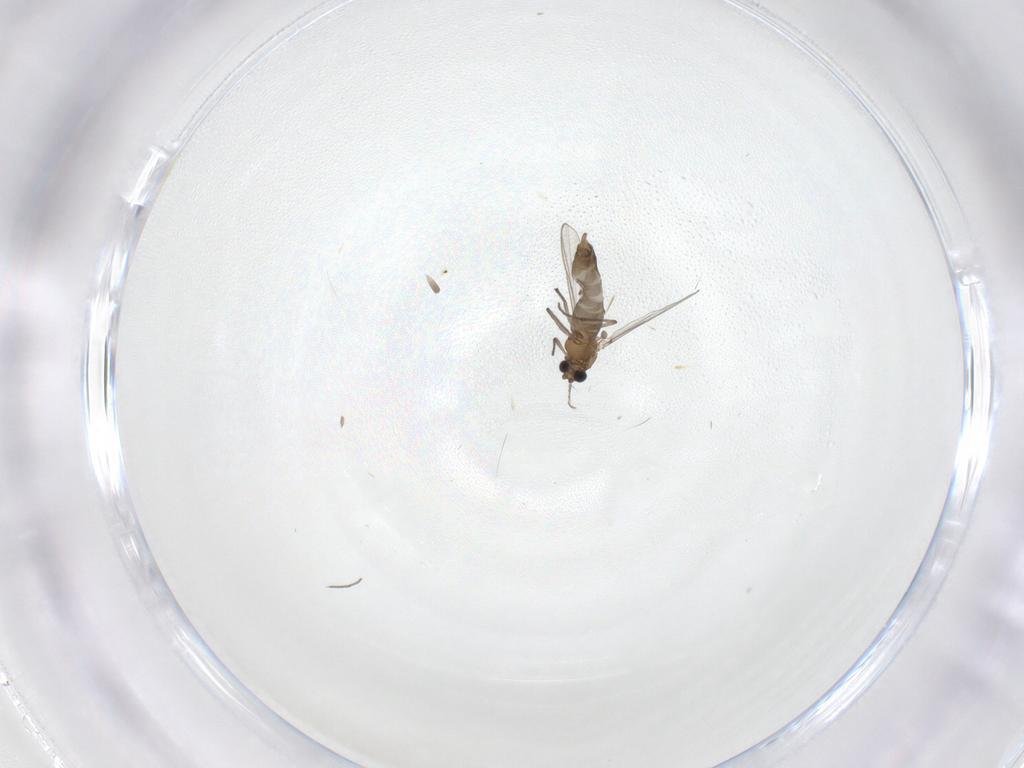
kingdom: Animalia
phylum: Arthropoda
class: Insecta
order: Diptera
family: Chironomidae
